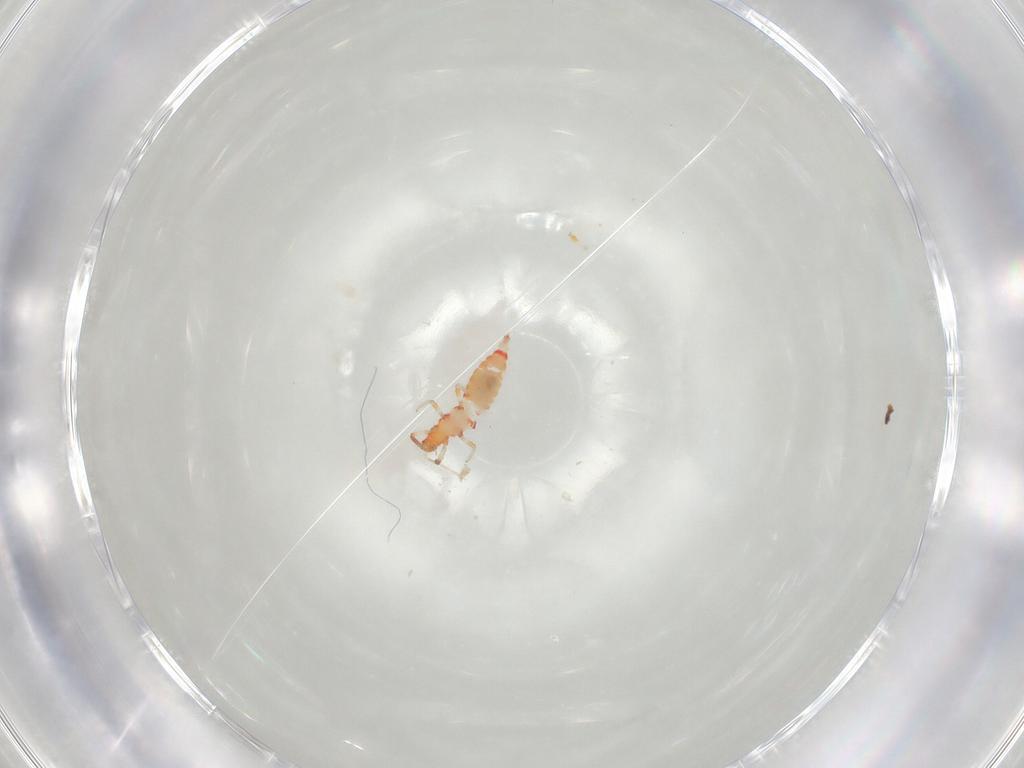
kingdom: Animalia
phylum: Arthropoda
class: Insecta
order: Thysanoptera
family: Aeolothripidae
